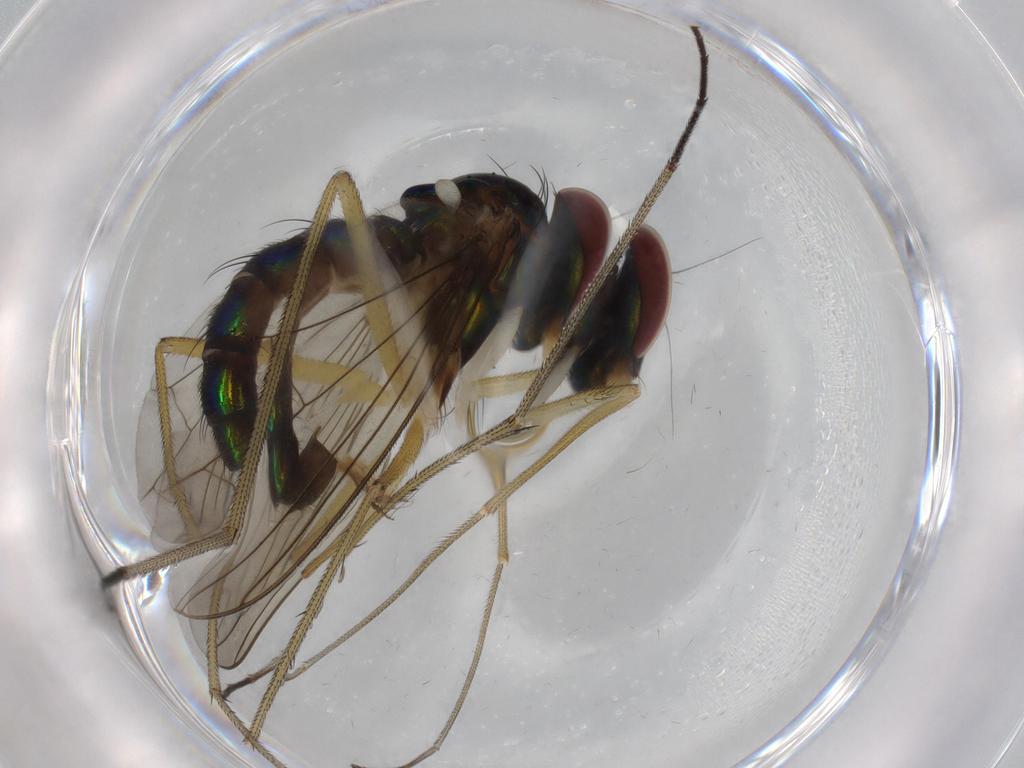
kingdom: Animalia
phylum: Arthropoda
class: Insecta
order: Diptera
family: Dolichopodidae
